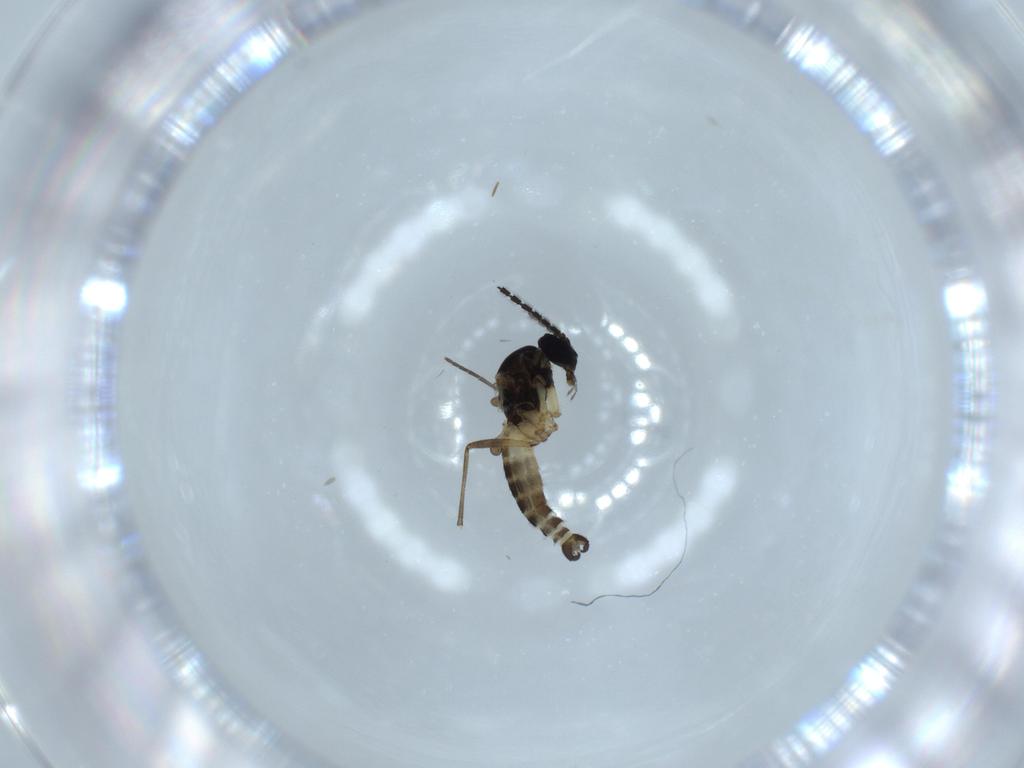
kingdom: Animalia
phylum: Arthropoda
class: Insecta
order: Diptera
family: Sciaridae
